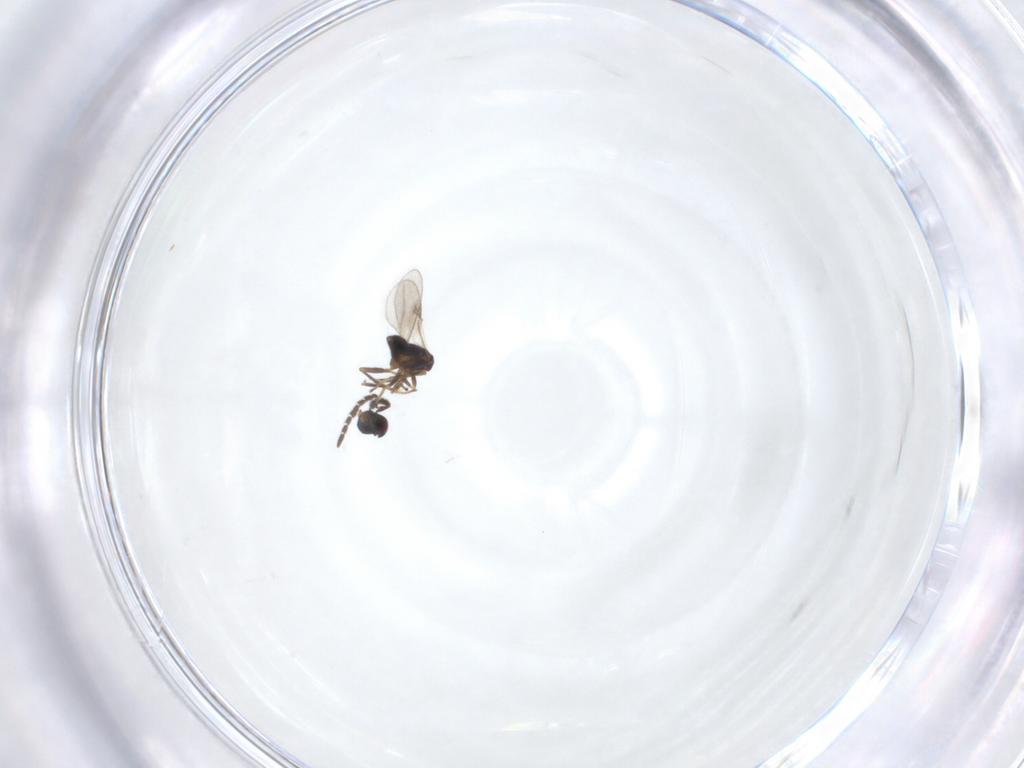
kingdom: Animalia
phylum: Arthropoda
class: Insecta
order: Hymenoptera
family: Encyrtidae
